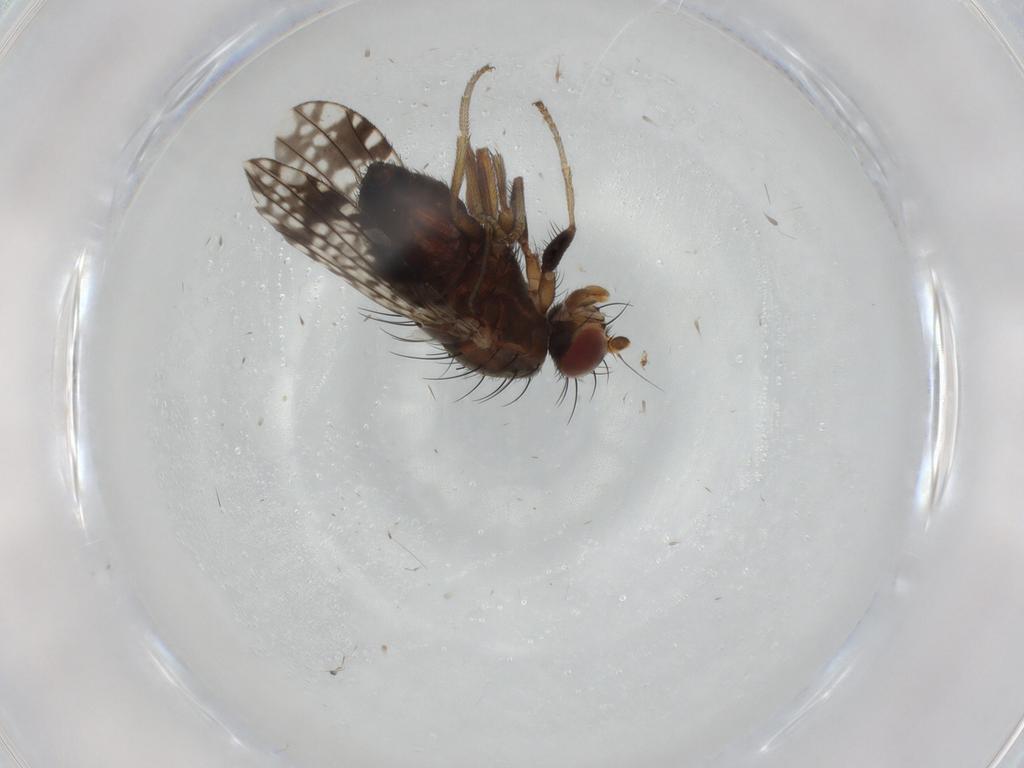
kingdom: Animalia
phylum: Arthropoda
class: Insecta
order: Diptera
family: Tephritidae
